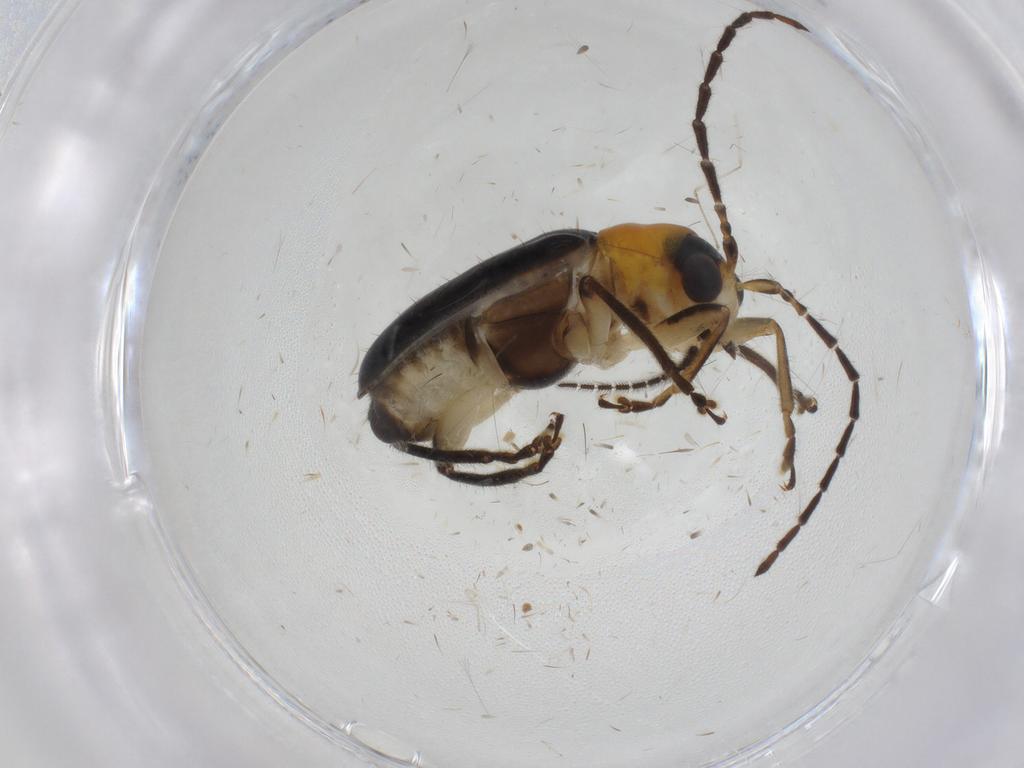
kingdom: Animalia
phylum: Arthropoda
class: Insecta
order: Coleoptera
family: Chrysomelidae
